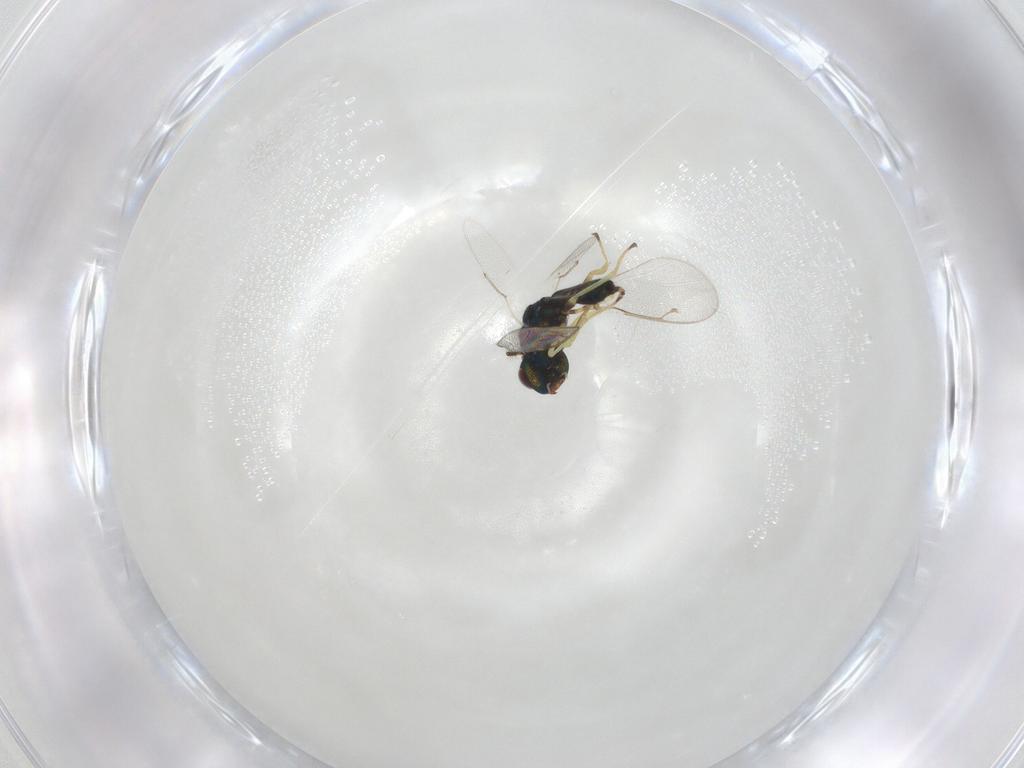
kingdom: Animalia
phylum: Arthropoda
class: Insecta
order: Hymenoptera
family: Pteromalidae
